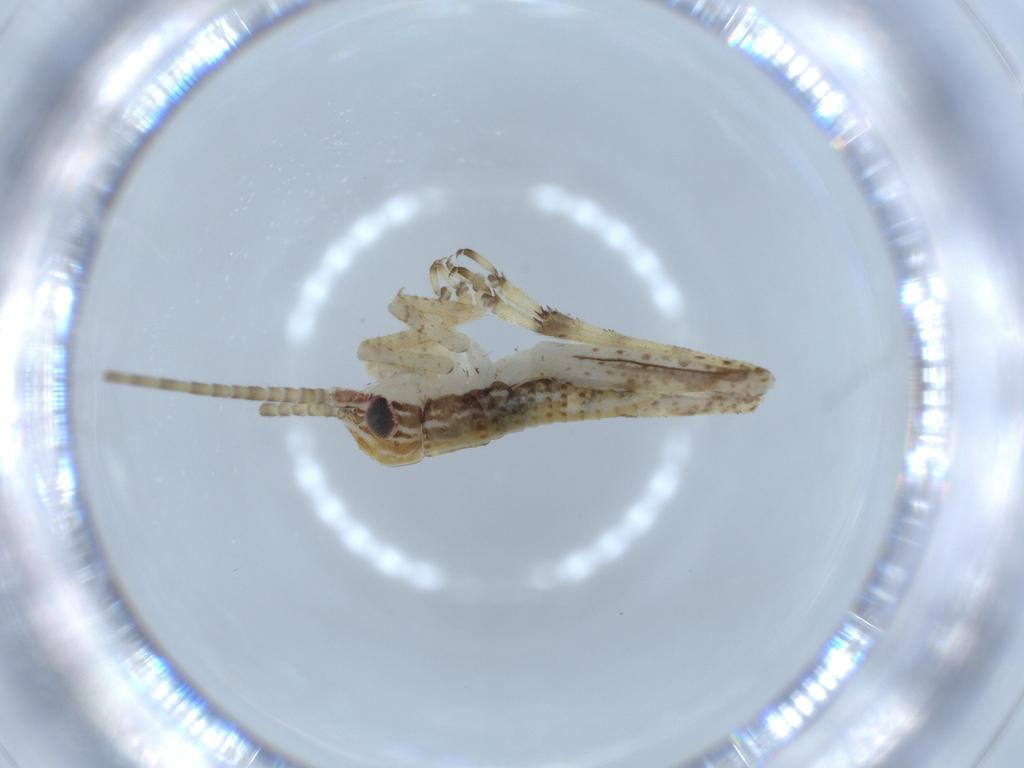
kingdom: Animalia
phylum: Arthropoda
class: Insecta
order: Orthoptera
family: Gryllidae
